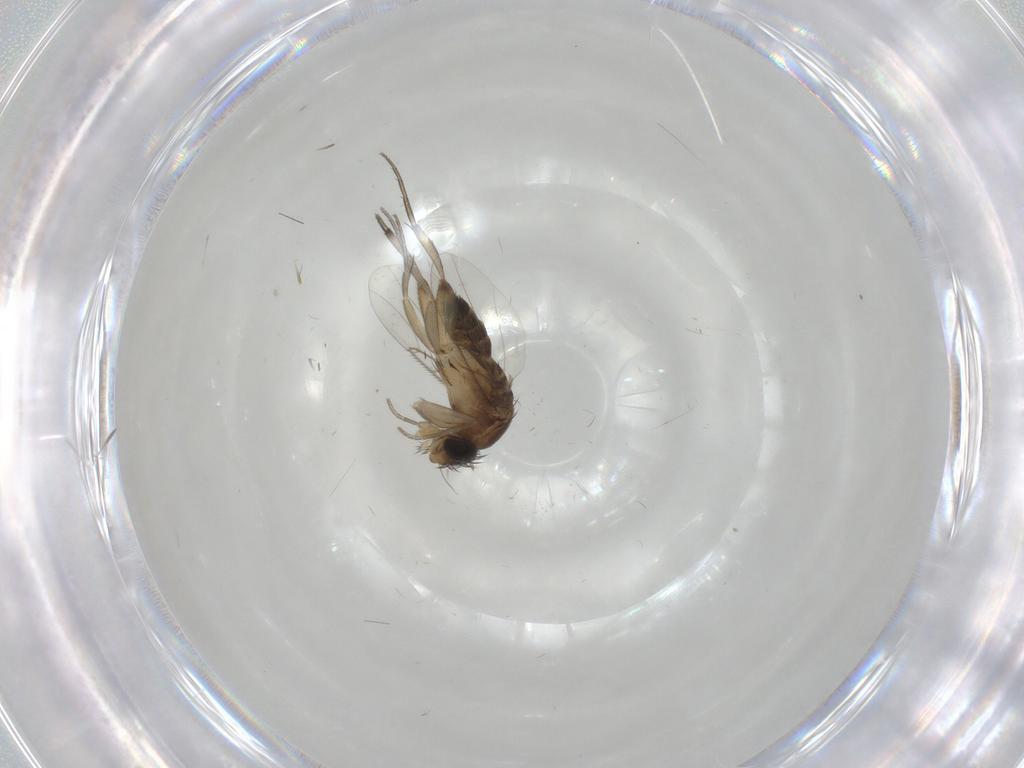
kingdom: Animalia
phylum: Arthropoda
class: Insecta
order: Diptera
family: Phoridae
